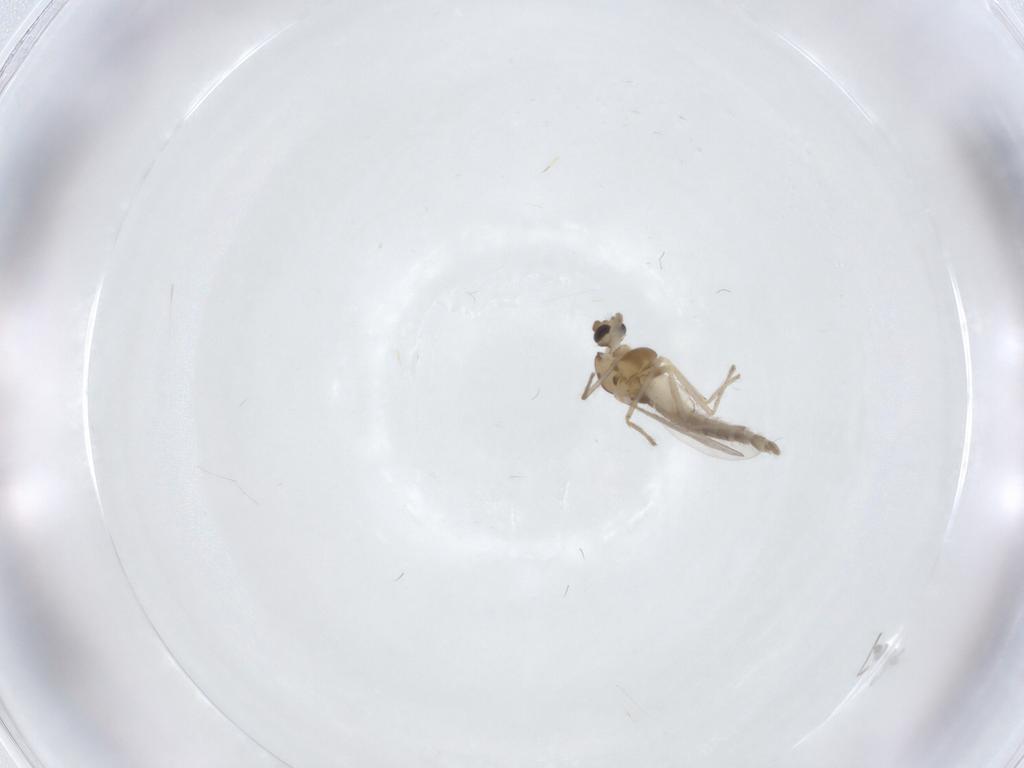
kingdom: Animalia
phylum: Arthropoda
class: Insecta
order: Diptera
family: Chironomidae
